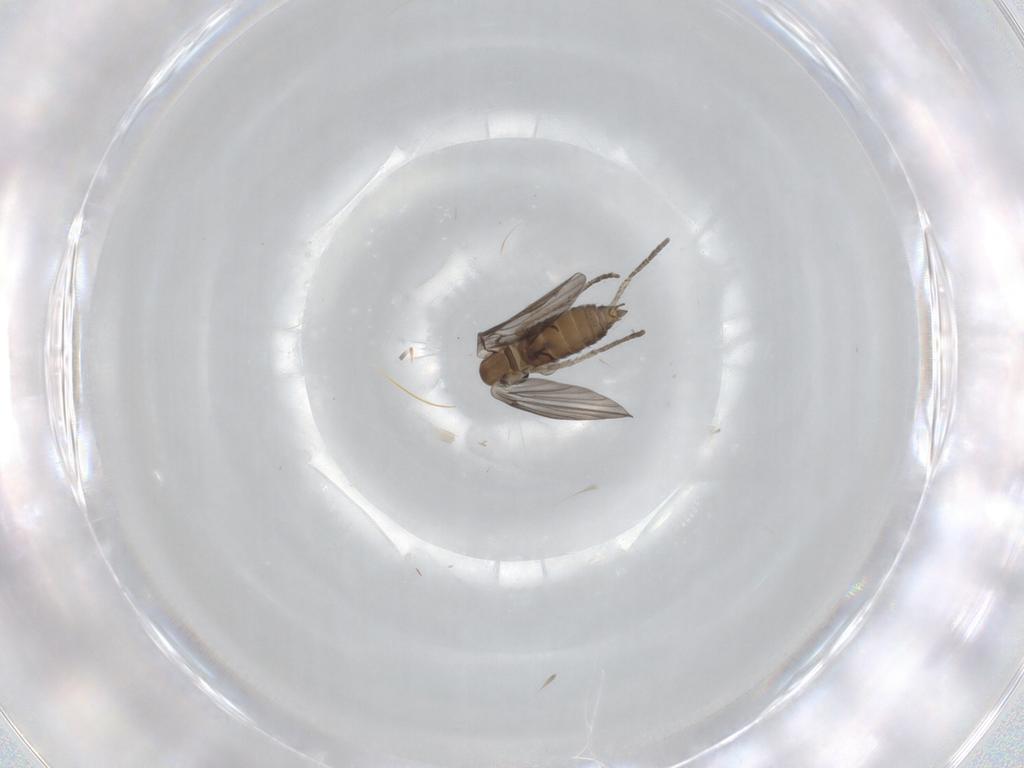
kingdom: Animalia
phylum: Arthropoda
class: Insecta
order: Diptera
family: Psychodidae
